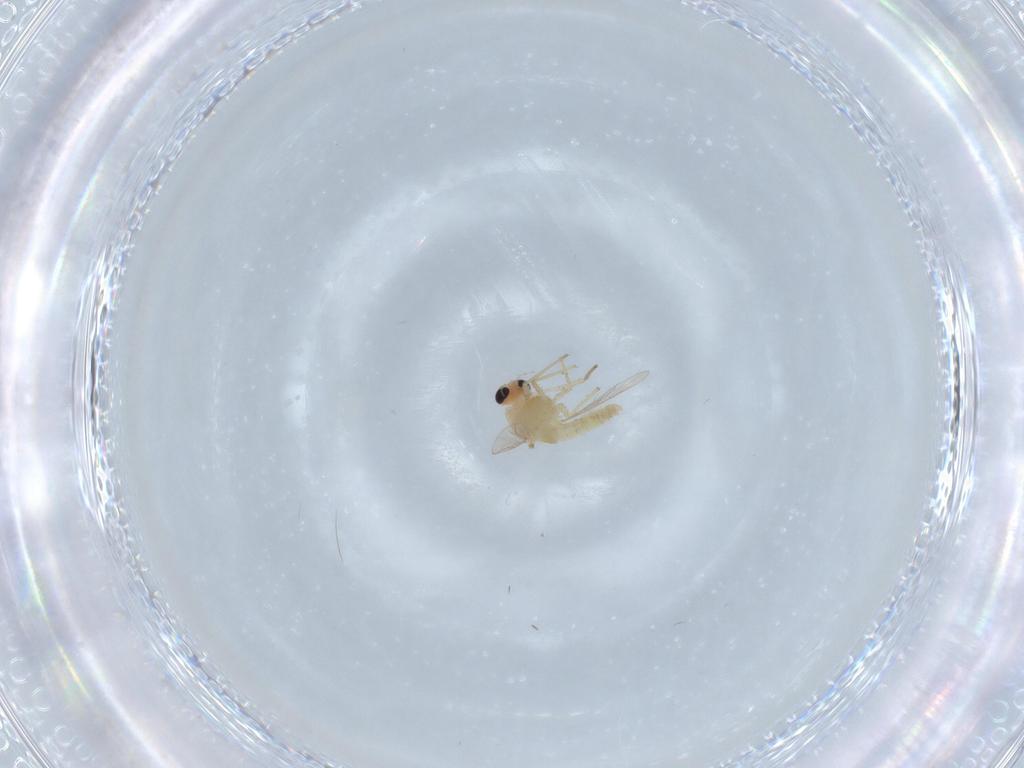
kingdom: Animalia
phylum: Arthropoda
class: Insecta
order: Diptera
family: Chironomidae
